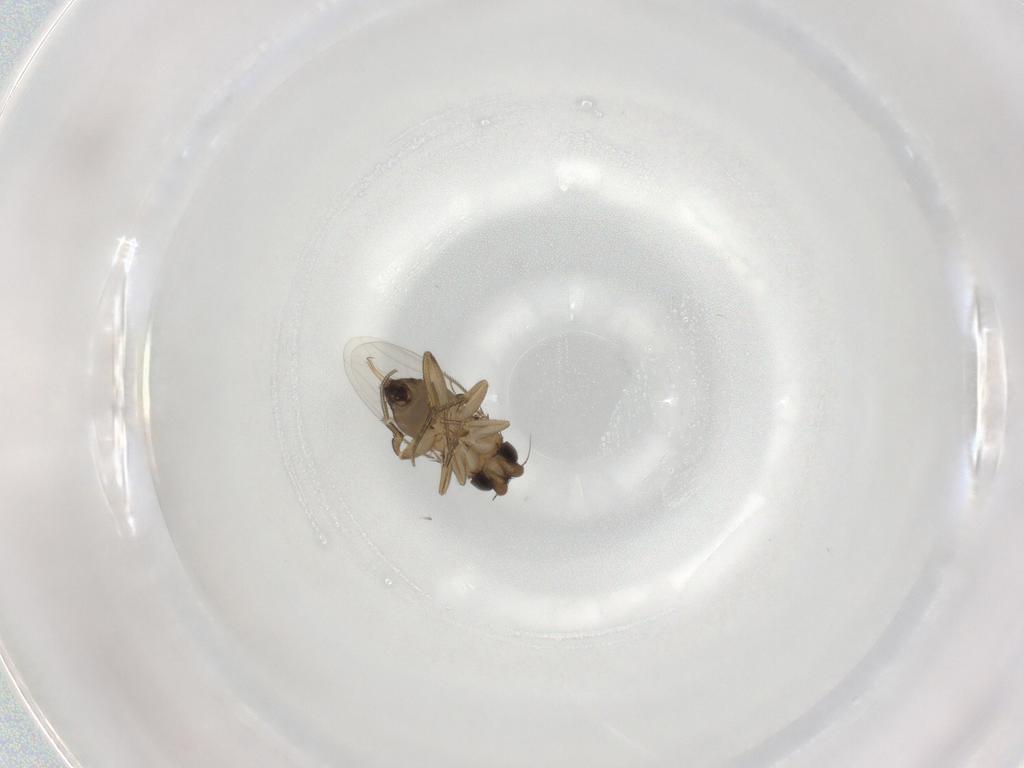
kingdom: Animalia
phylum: Arthropoda
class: Insecta
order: Diptera
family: Phoridae
